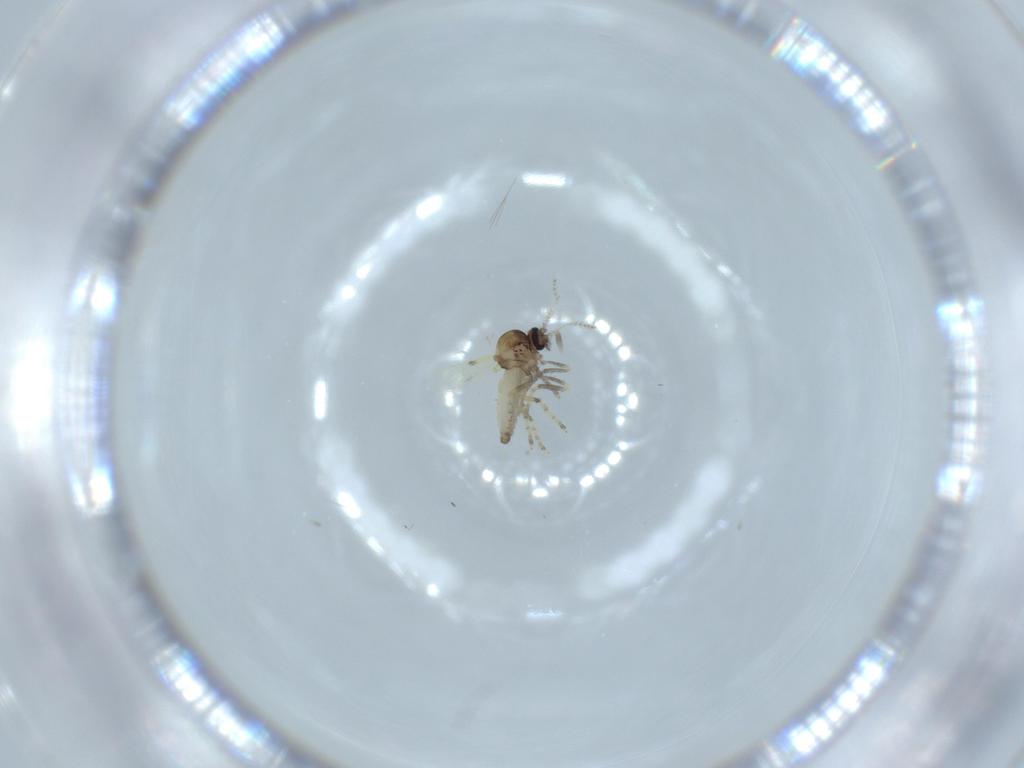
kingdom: Animalia
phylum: Arthropoda
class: Insecta
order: Diptera
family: Ceratopogonidae
